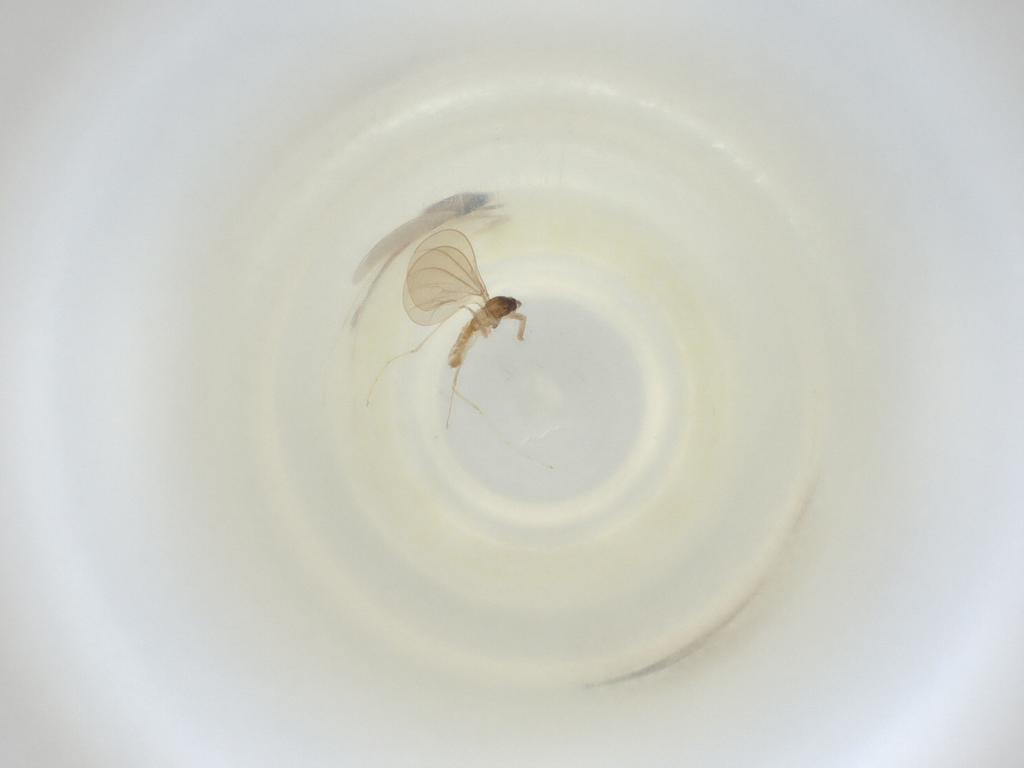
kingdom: Animalia
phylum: Arthropoda
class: Insecta
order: Diptera
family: Cecidomyiidae
